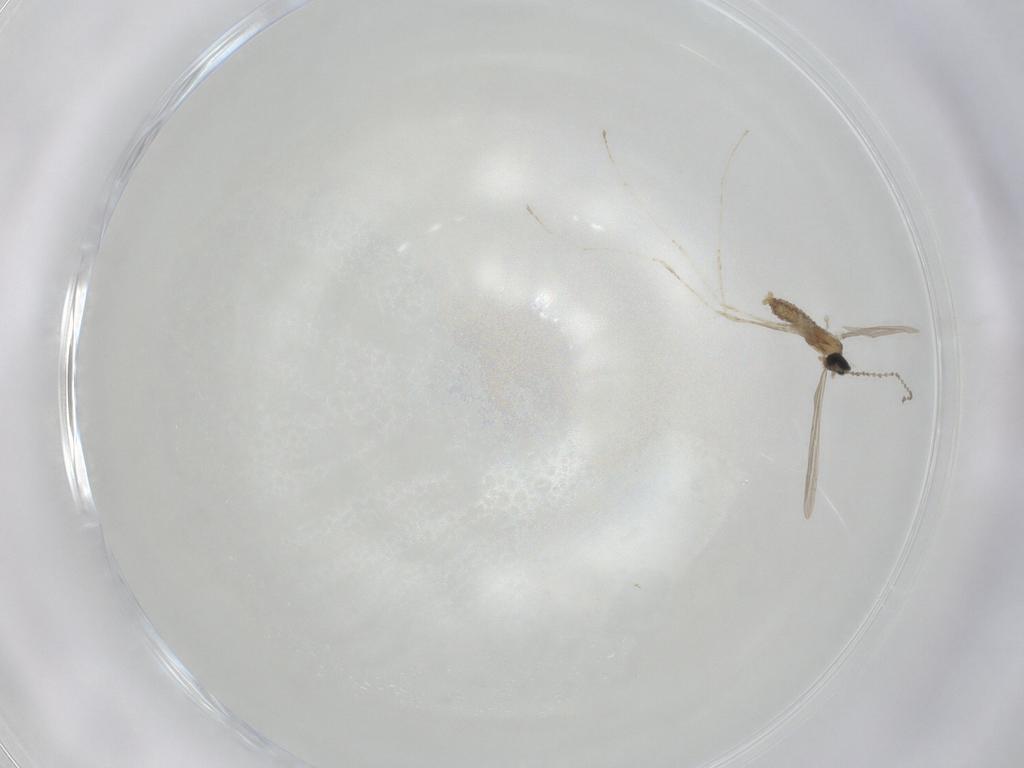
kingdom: Animalia
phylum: Arthropoda
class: Insecta
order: Diptera
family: Cecidomyiidae
